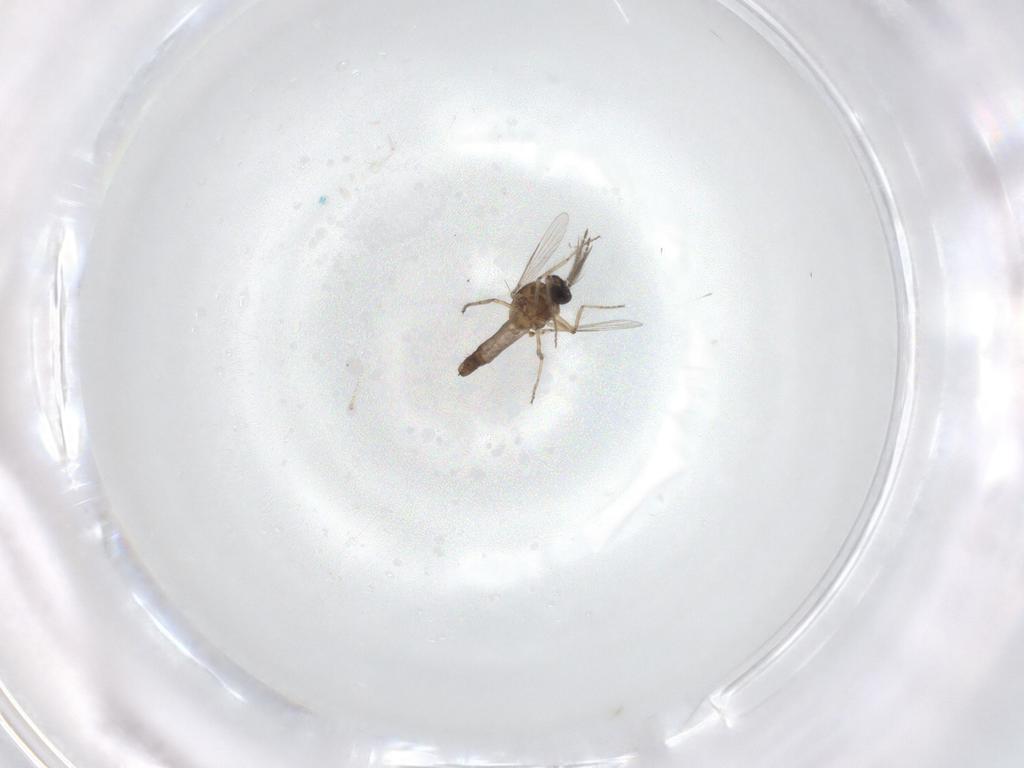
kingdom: Animalia
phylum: Arthropoda
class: Insecta
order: Diptera
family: Ceratopogonidae
